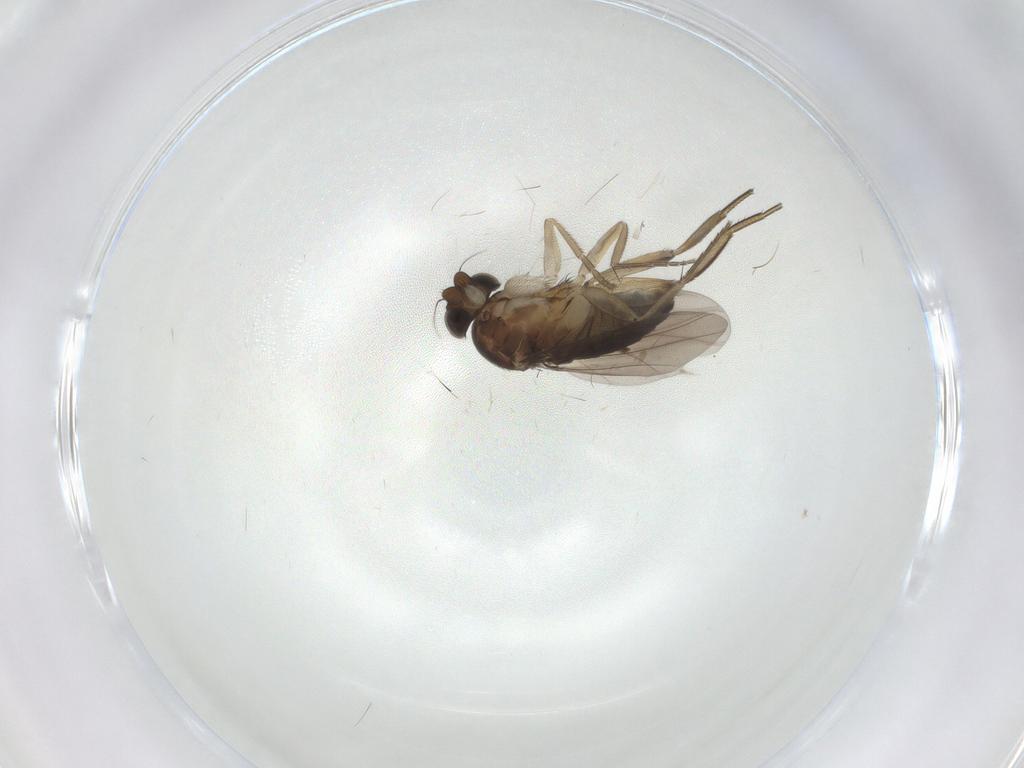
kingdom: Animalia
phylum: Arthropoda
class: Insecta
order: Diptera
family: Phoridae
